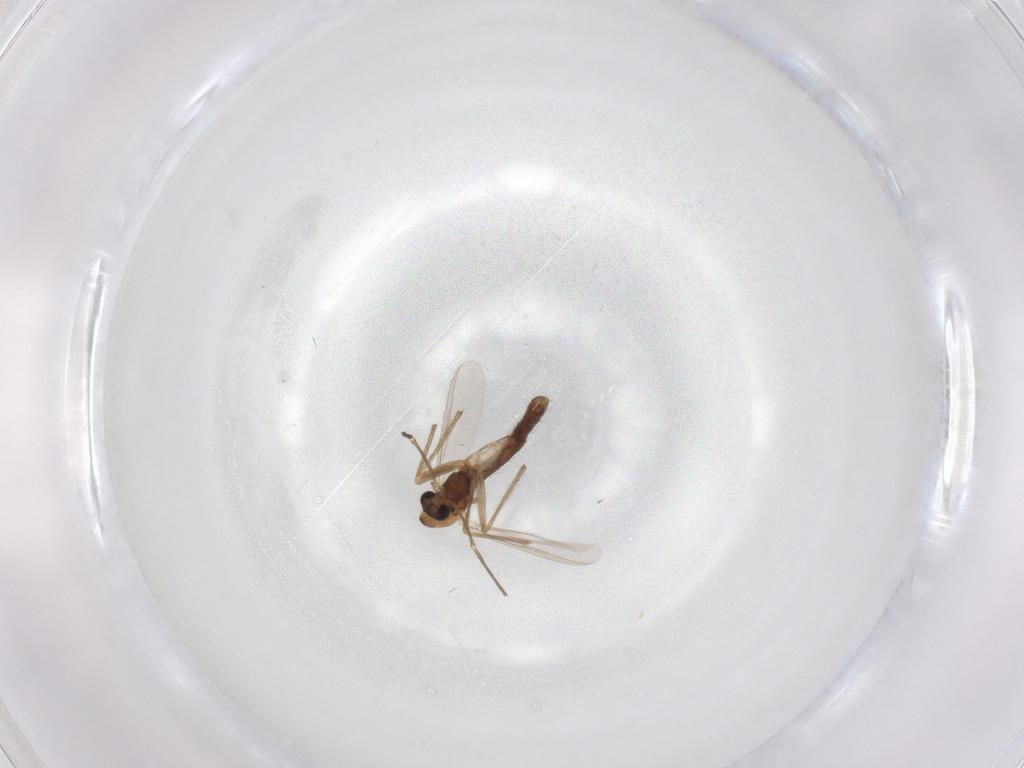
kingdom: Animalia
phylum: Arthropoda
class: Insecta
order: Diptera
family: Chironomidae
